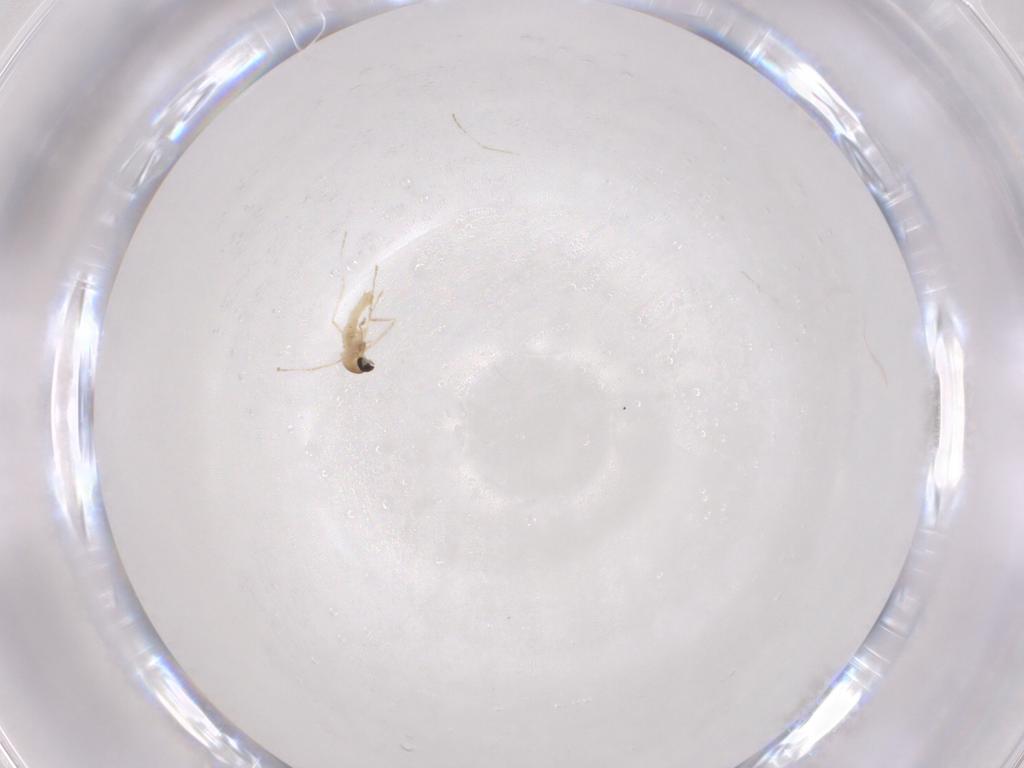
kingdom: Animalia
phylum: Arthropoda
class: Insecta
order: Diptera
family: Cecidomyiidae
